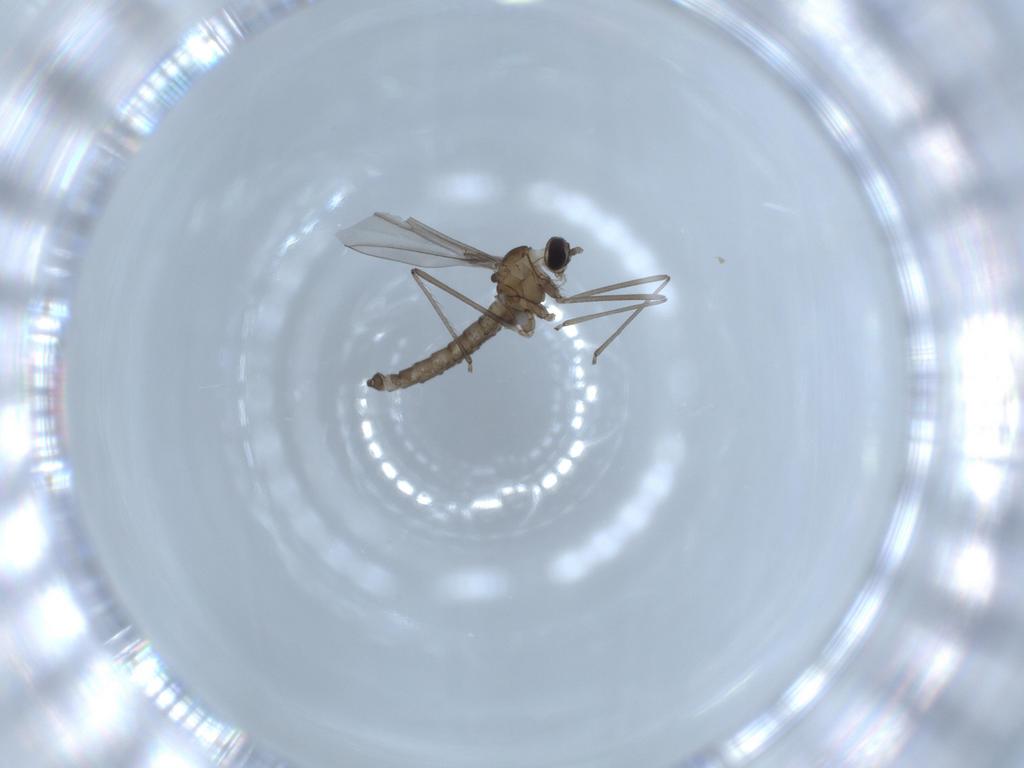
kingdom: Animalia
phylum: Arthropoda
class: Insecta
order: Diptera
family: Cecidomyiidae
